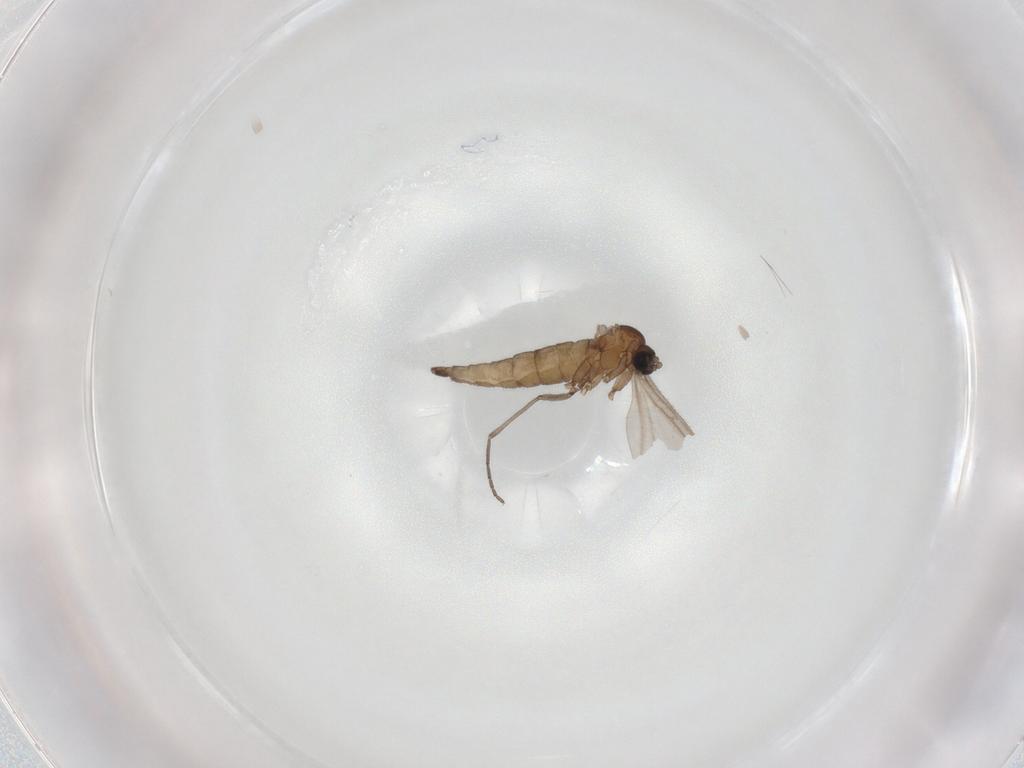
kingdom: Animalia
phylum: Arthropoda
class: Insecta
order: Diptera
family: Sciaridae
